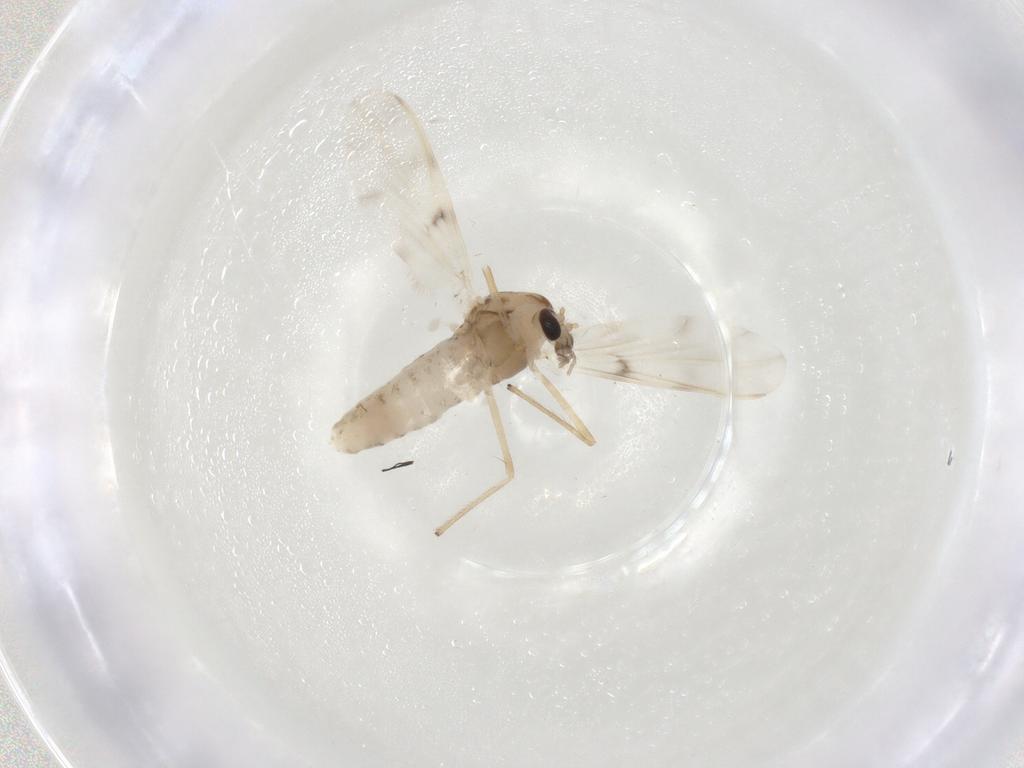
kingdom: Animalia
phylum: Arthropoda
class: Insecta
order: Diptera
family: Chironomidae
